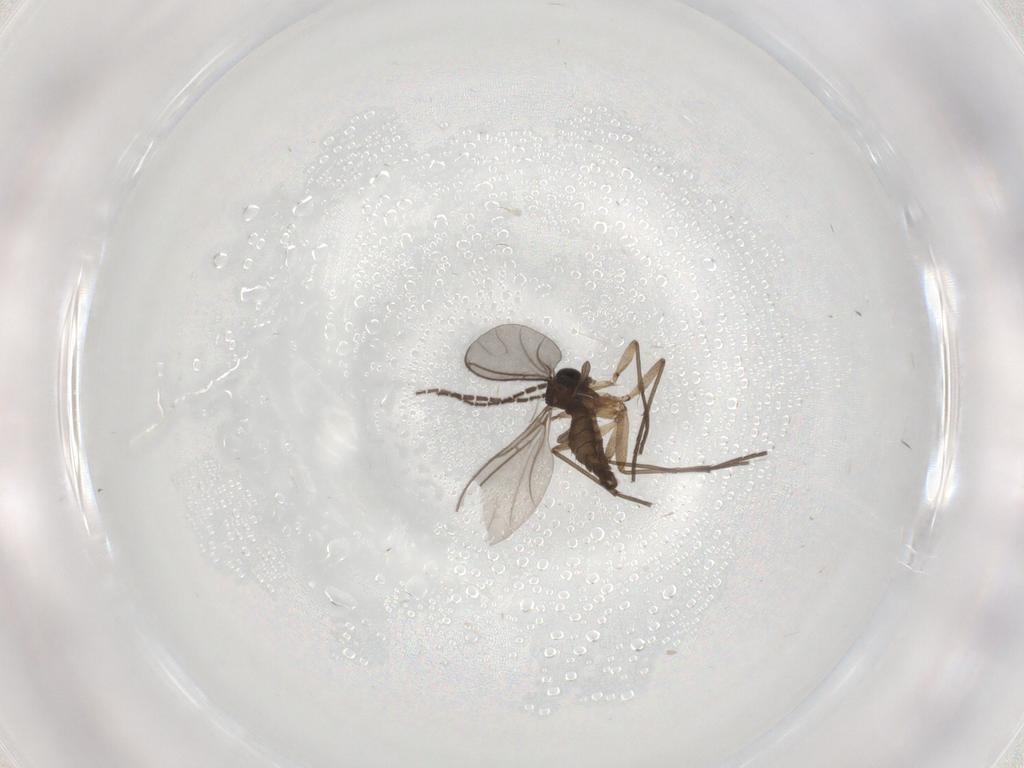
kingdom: Animalia
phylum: Arthropoda
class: Insecta
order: Diptera
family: Sciaridae
